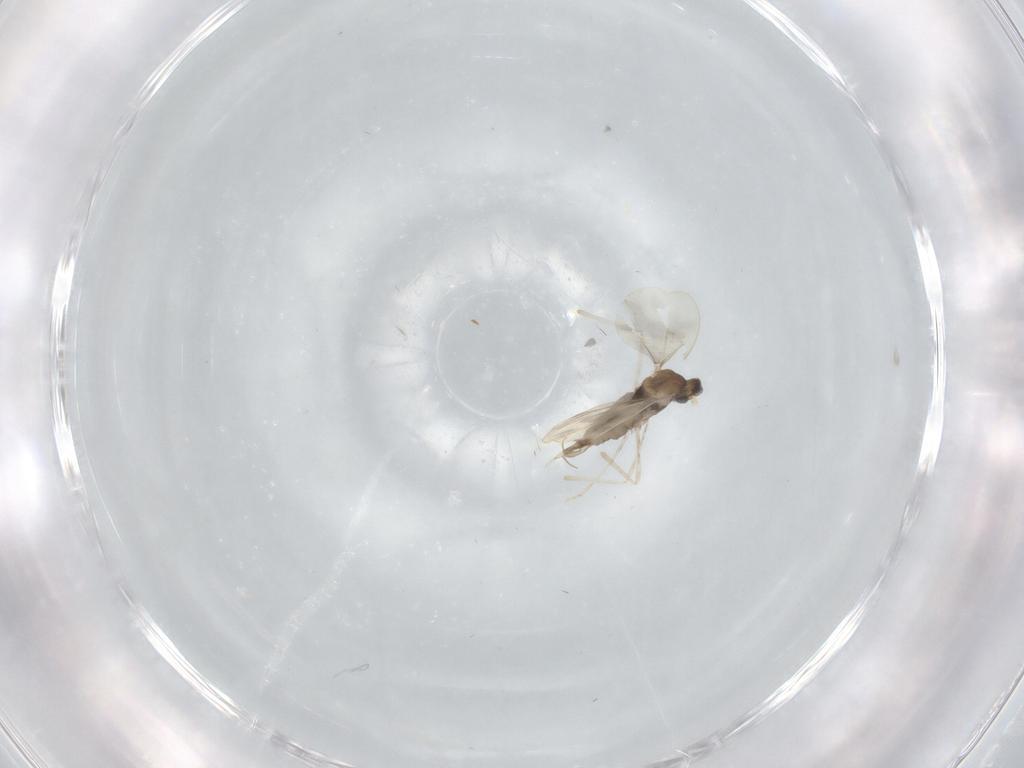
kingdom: Animalia
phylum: Arthropoda
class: Insecta
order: Diptera
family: Cecidomyiidae
